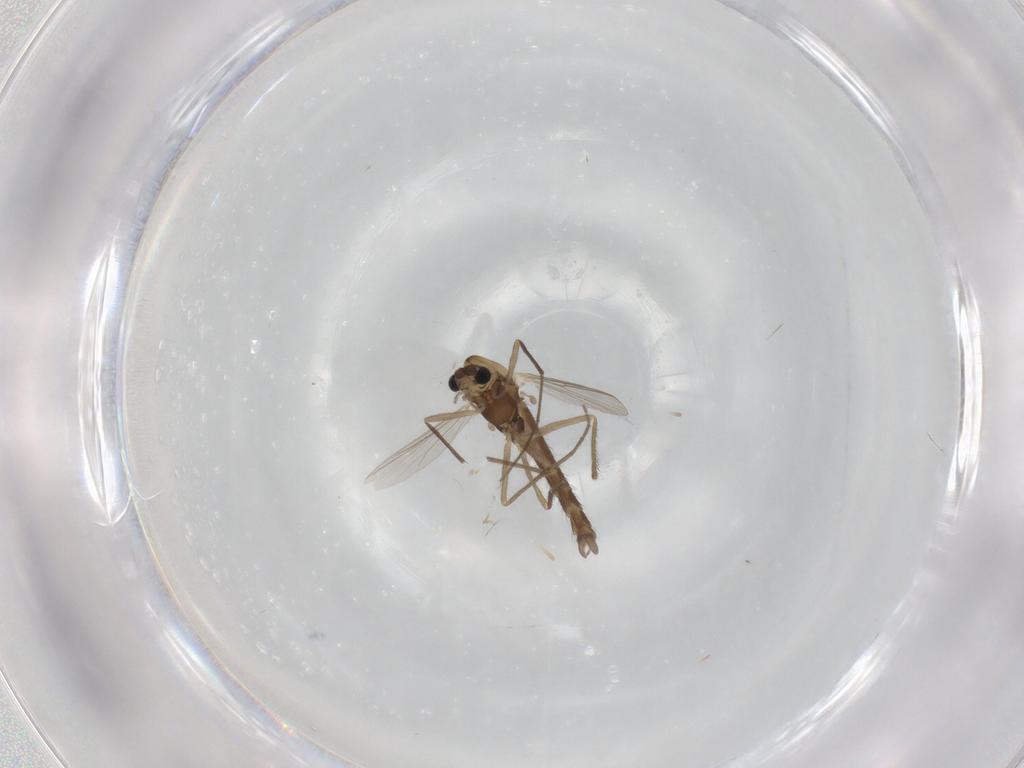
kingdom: Animalia
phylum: Arthropoda
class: Insecta
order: Diptera
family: Chironomidae
